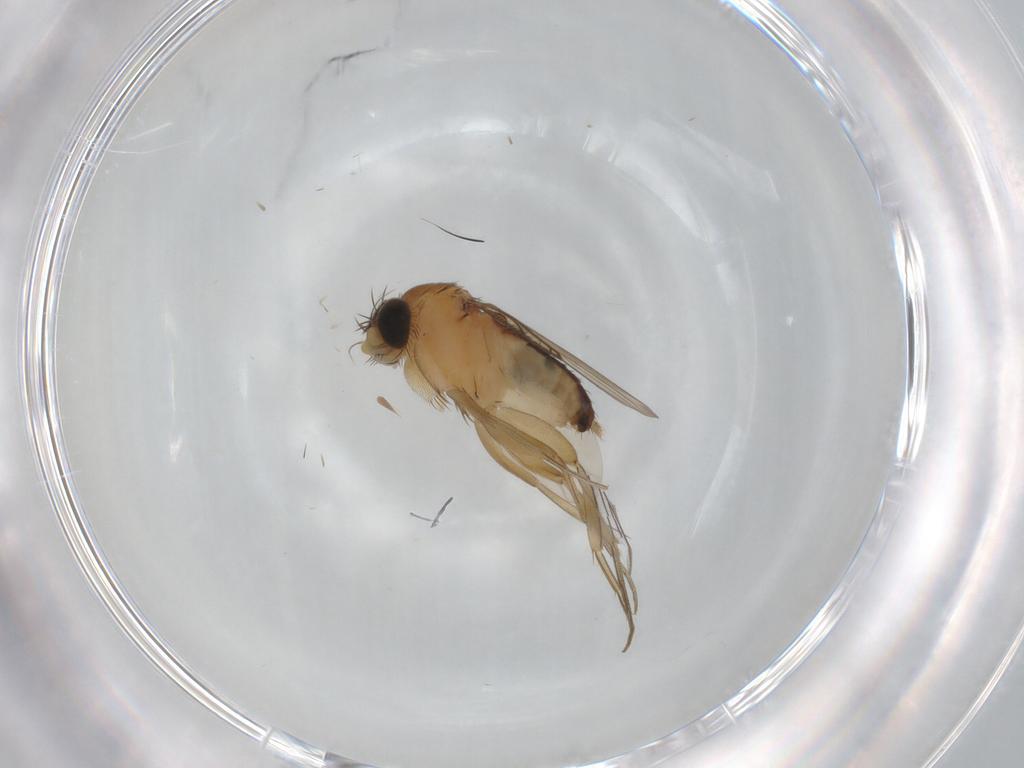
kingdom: Animalia
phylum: Arthropoda
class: Insecta
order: Diptera
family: Phoridae
